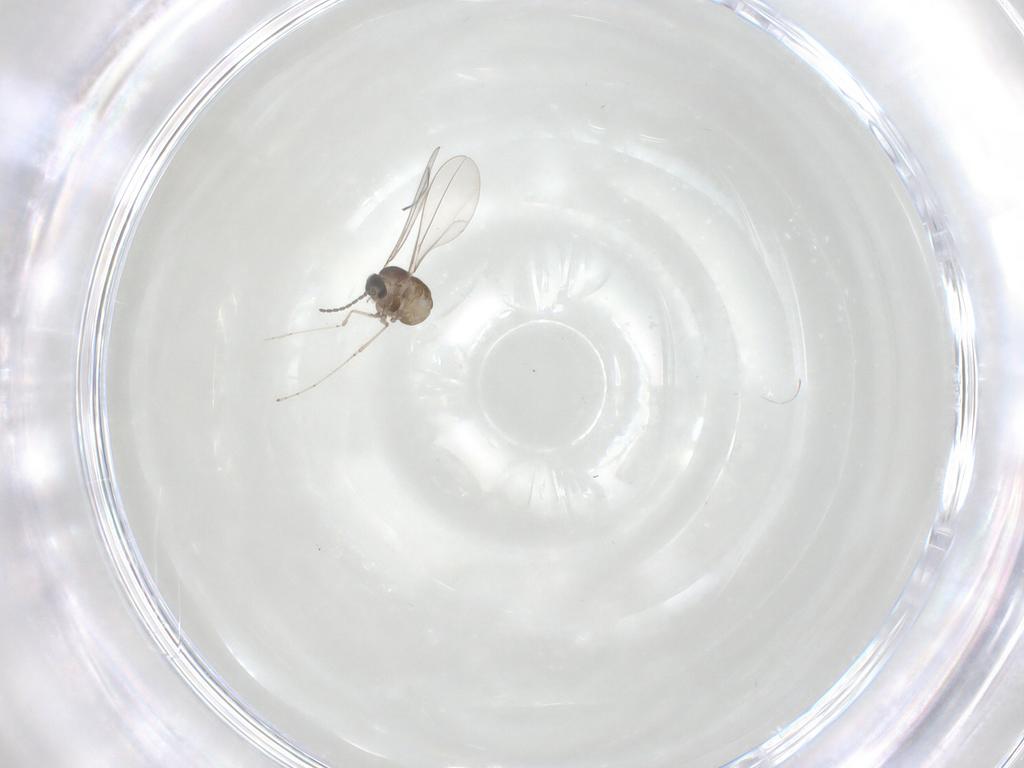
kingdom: Animalia
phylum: Arthropoda
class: Insecta
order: Diptera
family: Cecidomyiidae
